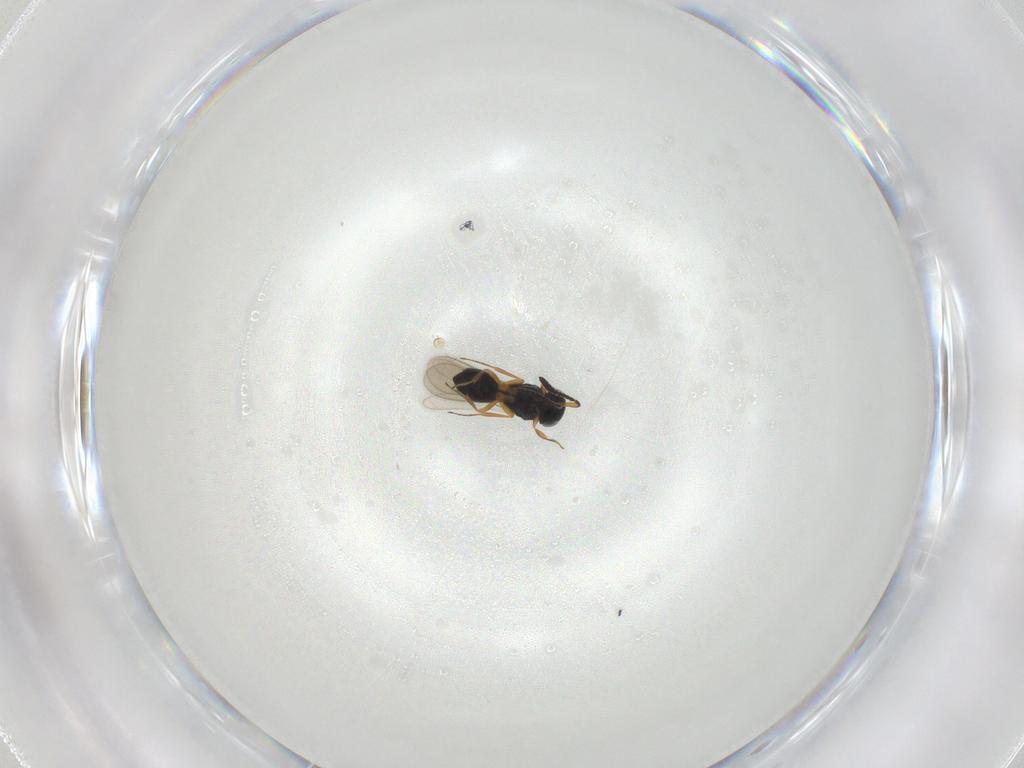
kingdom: Animalia
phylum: Arthropoda
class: Insecta
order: Hymenoptera
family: Scelionidae
